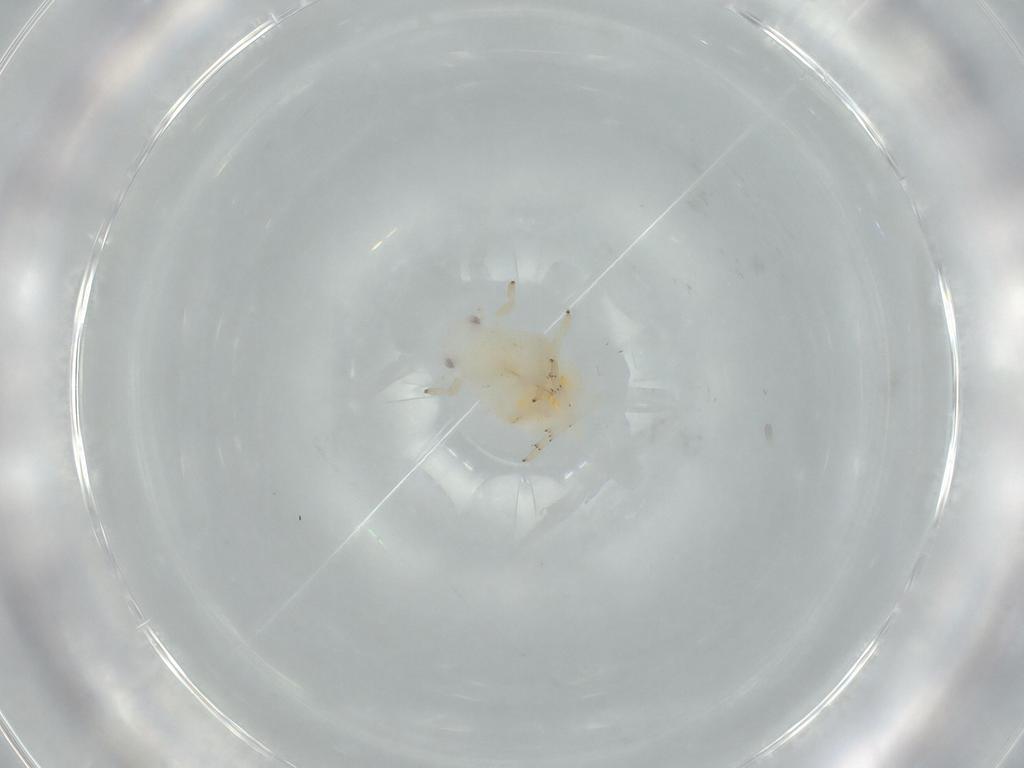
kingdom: Animalia
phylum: Arthropoda
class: Insecta
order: Hemiptera
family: Flatidae
